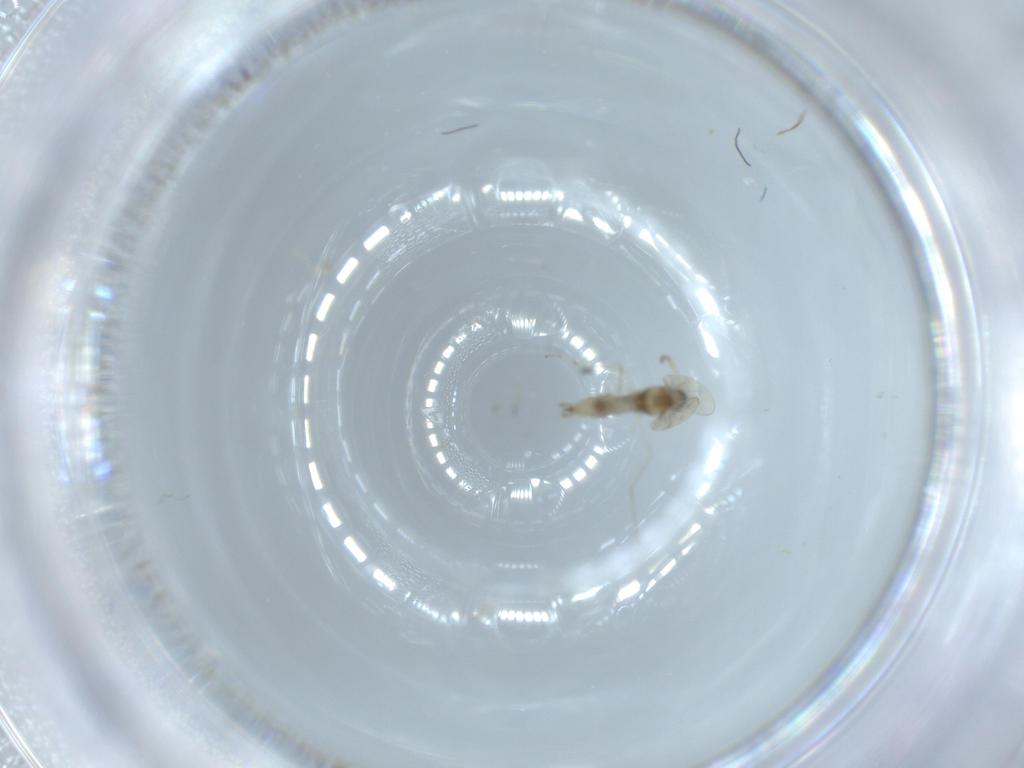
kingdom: Animalia
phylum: Arthropoda
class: Insecta
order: Diptera
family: Cecidomyiidae
